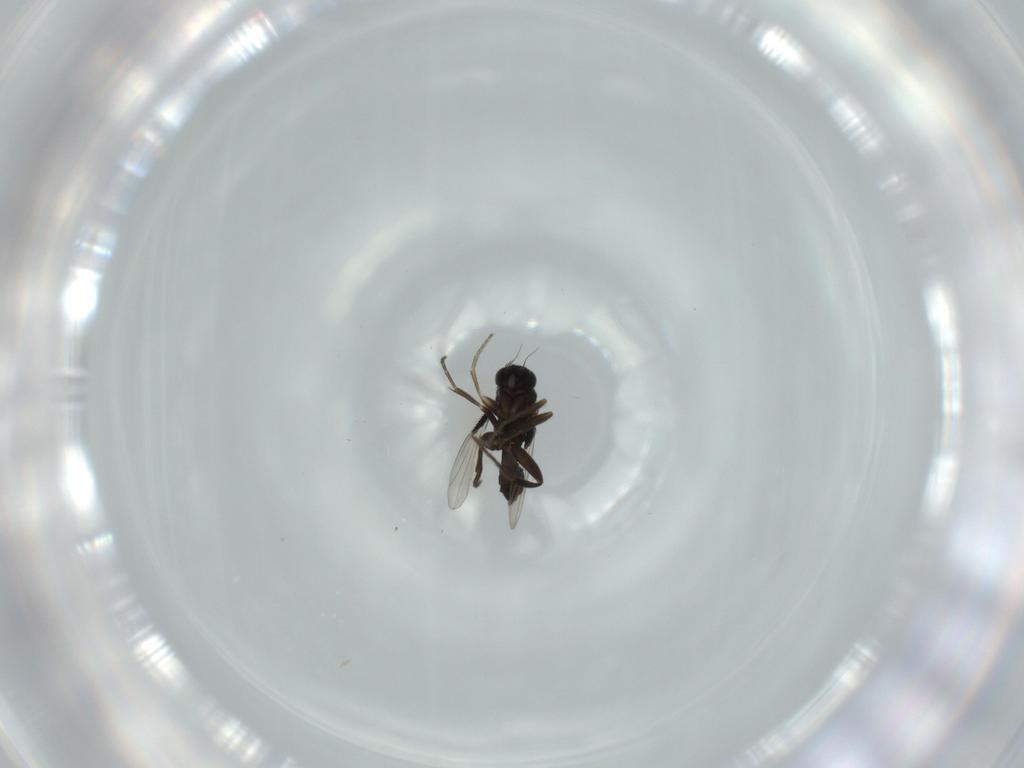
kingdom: Animalia
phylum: Arthropoda
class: Insecta
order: Diptera
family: Phoridae
